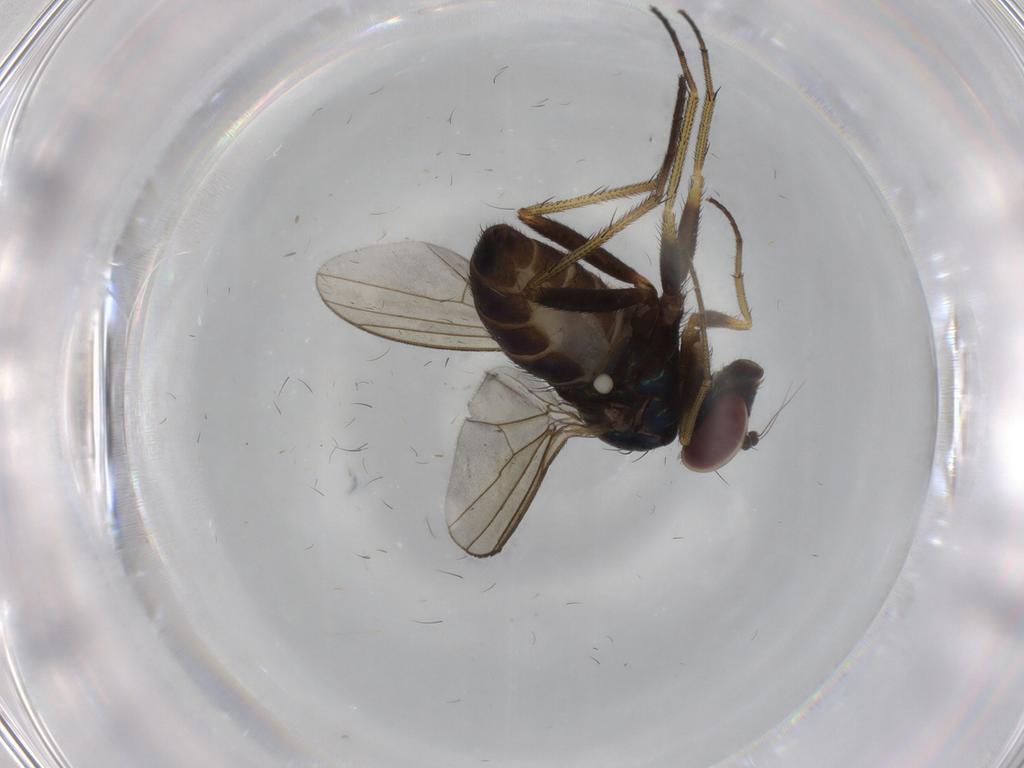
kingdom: Animalia
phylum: Arthropoda
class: Insecta
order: Diptera
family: Dolichopodidae
